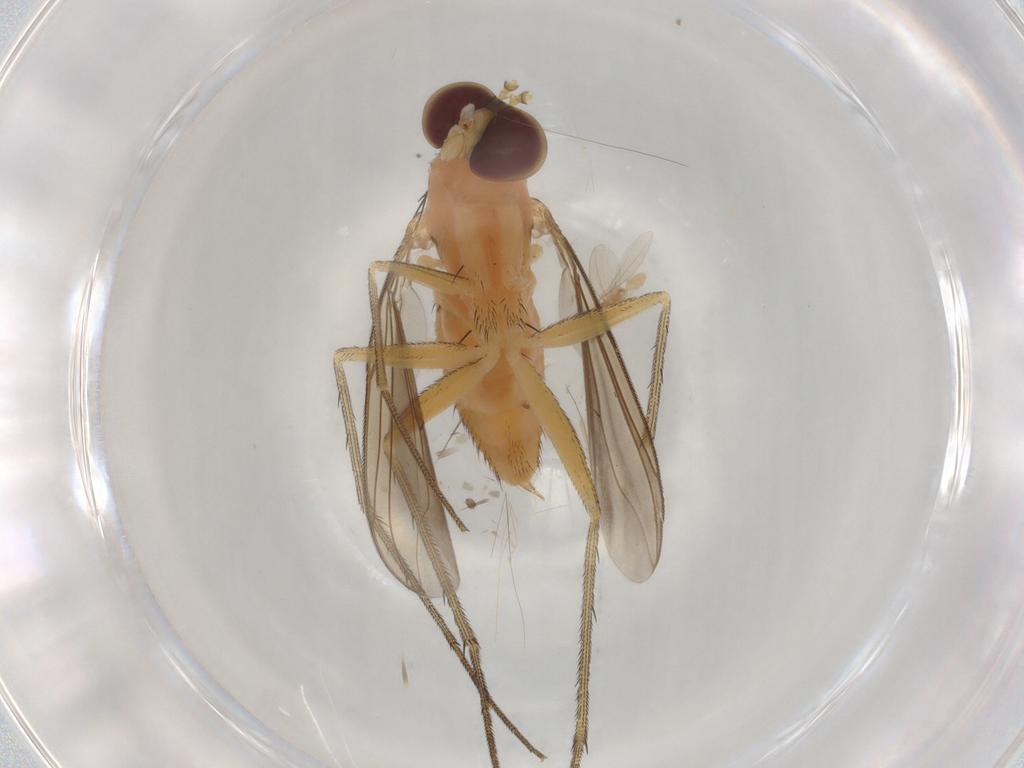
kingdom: Animalia
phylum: Arthropoda
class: Insecta
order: Diptera
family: Dolichopodidae
